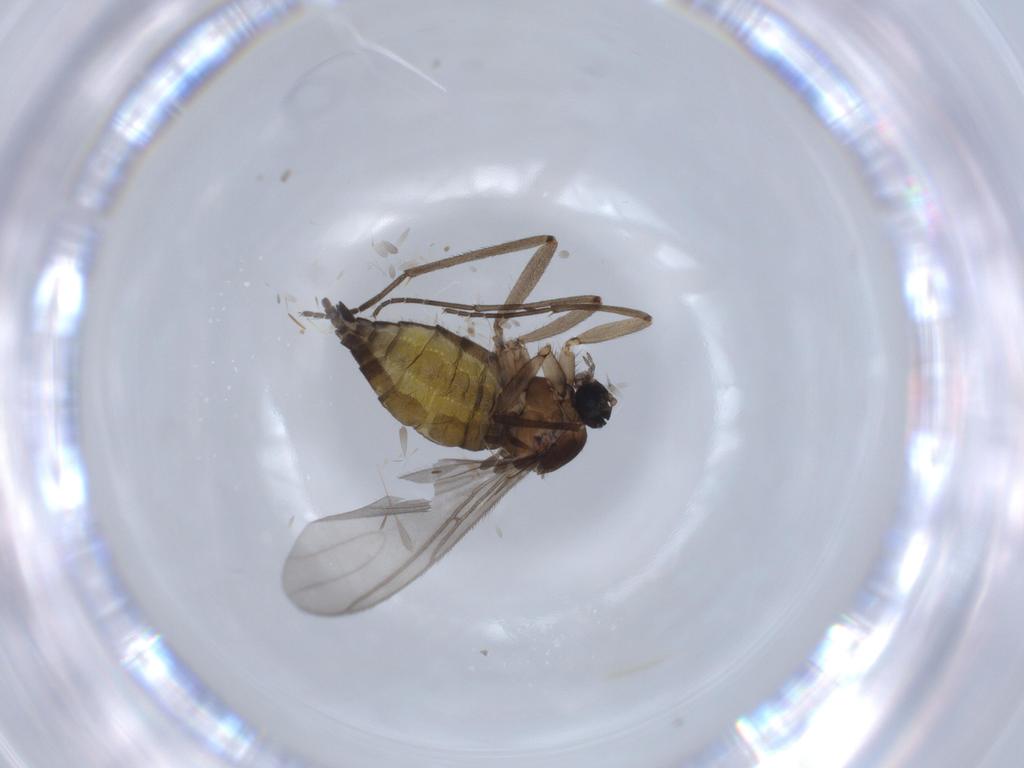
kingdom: Animalia
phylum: Arthropoda
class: Insecta
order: Diptera
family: Sciaridae
